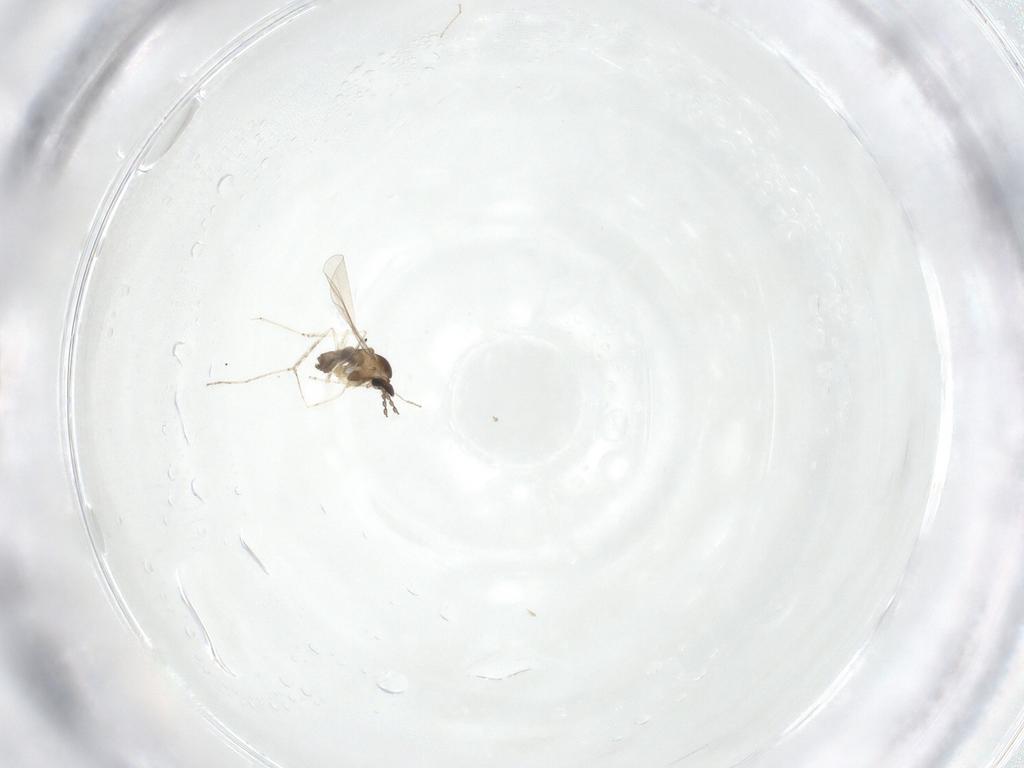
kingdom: Animalia
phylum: Arthropoda
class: Insecta
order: Diptera
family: Cecidomyiidae
